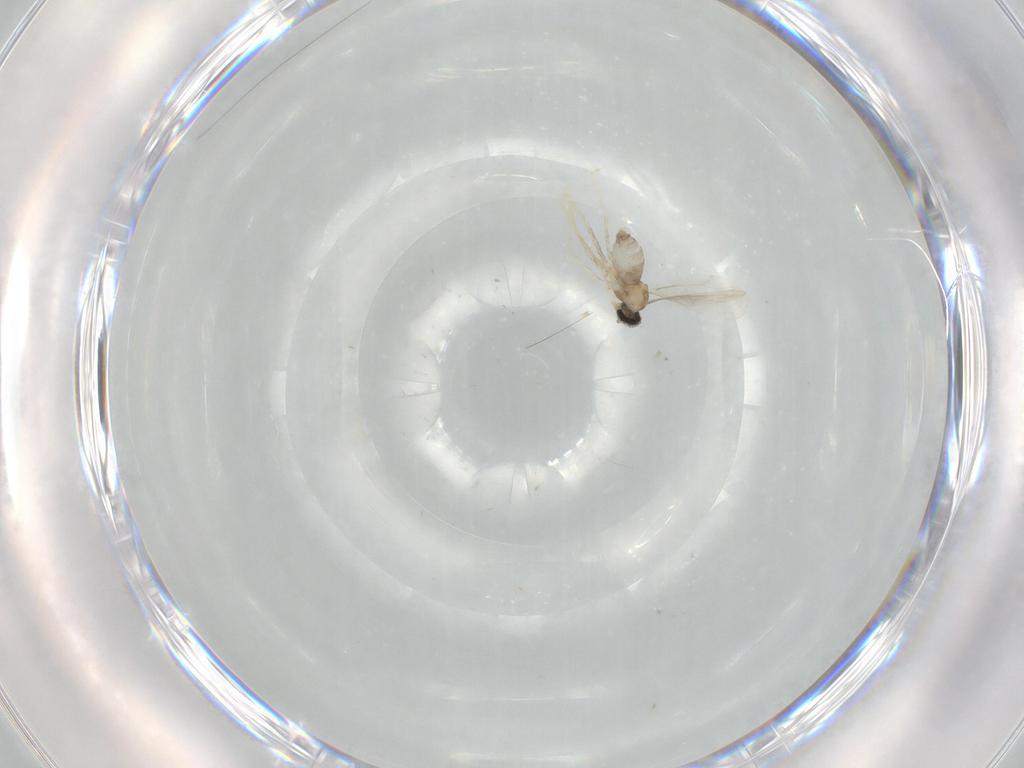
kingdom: Animalia
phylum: Arthropoda
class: Insecta
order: Diptera
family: Cecidomyiidae
